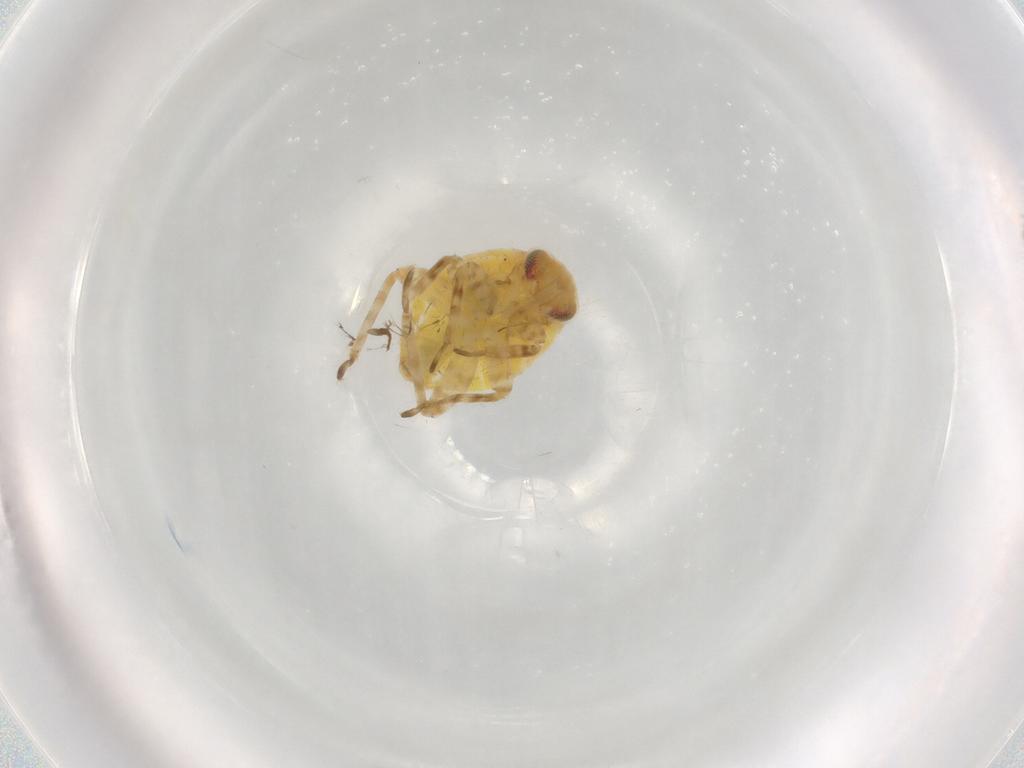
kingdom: Animalia
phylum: Arthropoda
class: Insecta
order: Hemiptera
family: Miridae
